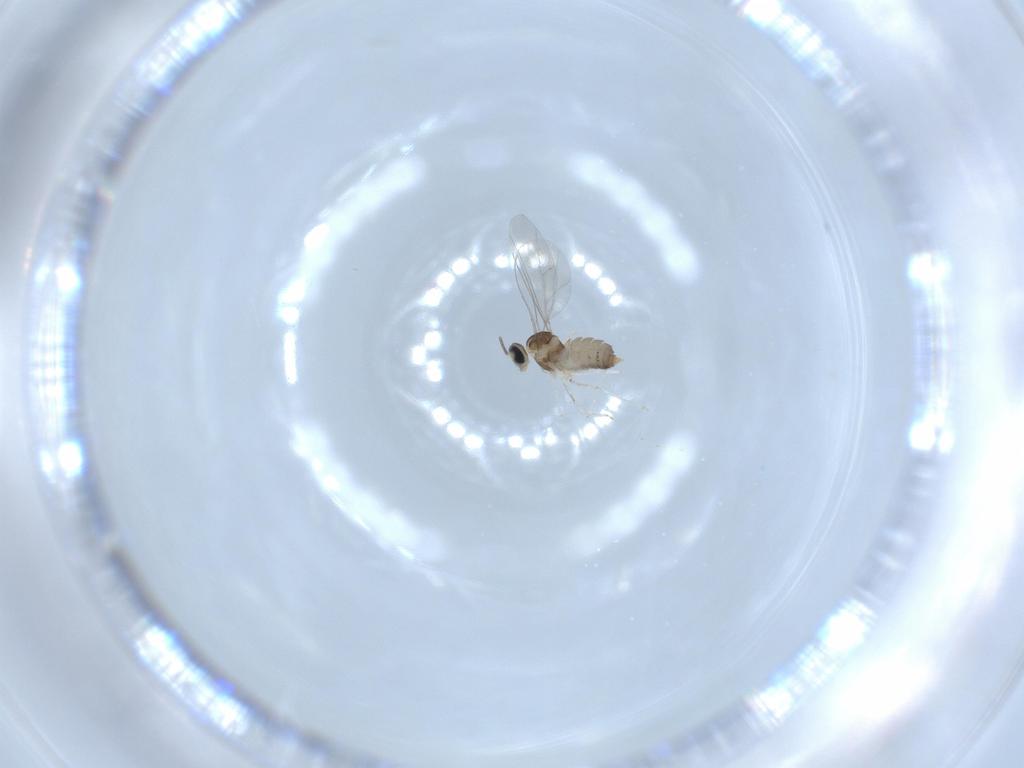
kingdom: Animalia
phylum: Arthropoda
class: Insecta
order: Diptera
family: Cecidomyiidae
